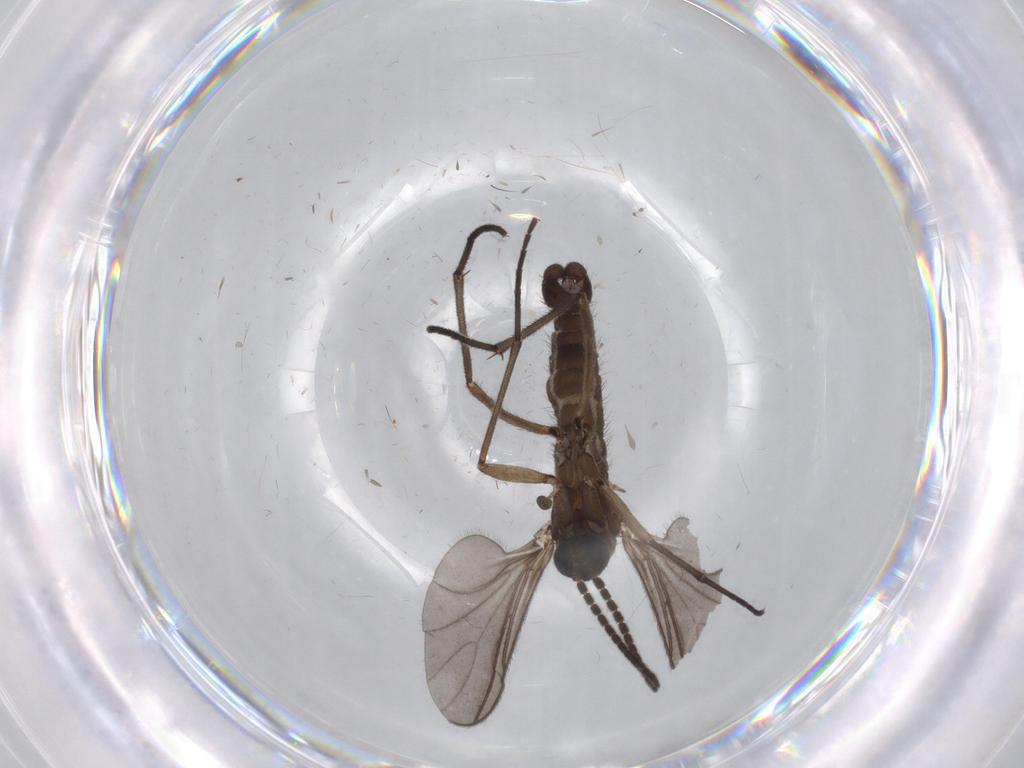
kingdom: Animalia
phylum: Arthropoda
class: Insecta
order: Diptera
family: Sciaridae
